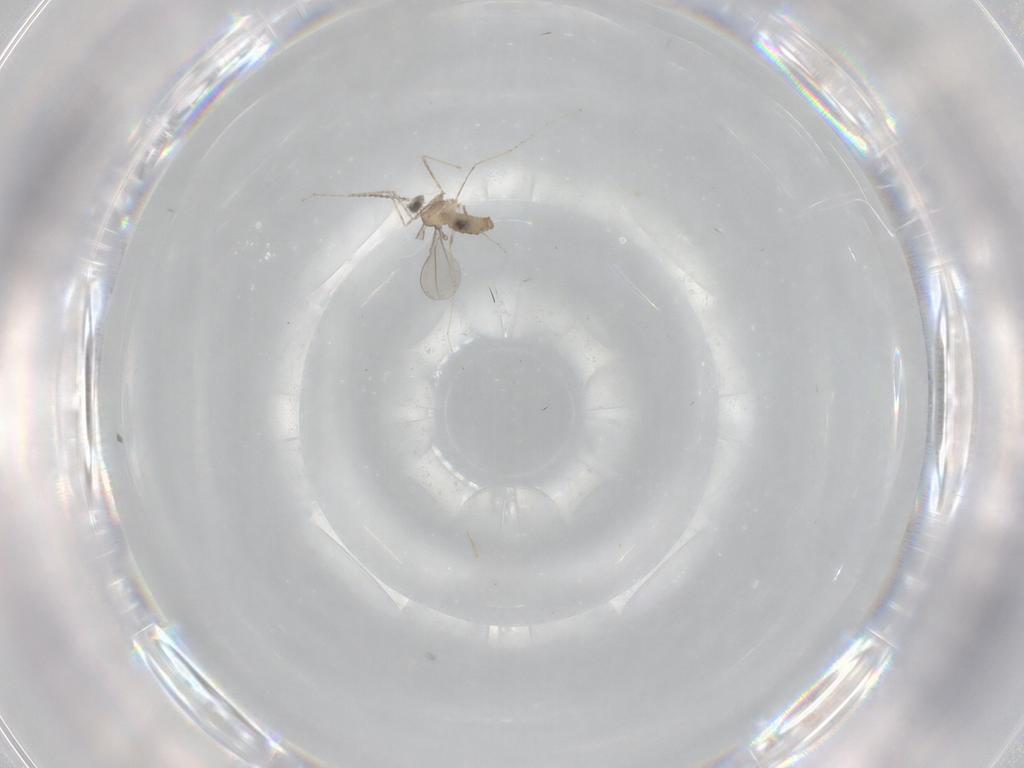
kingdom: Animalia
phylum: Arthropoda
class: Insecta
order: Diptera
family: Cecidomyiidae
